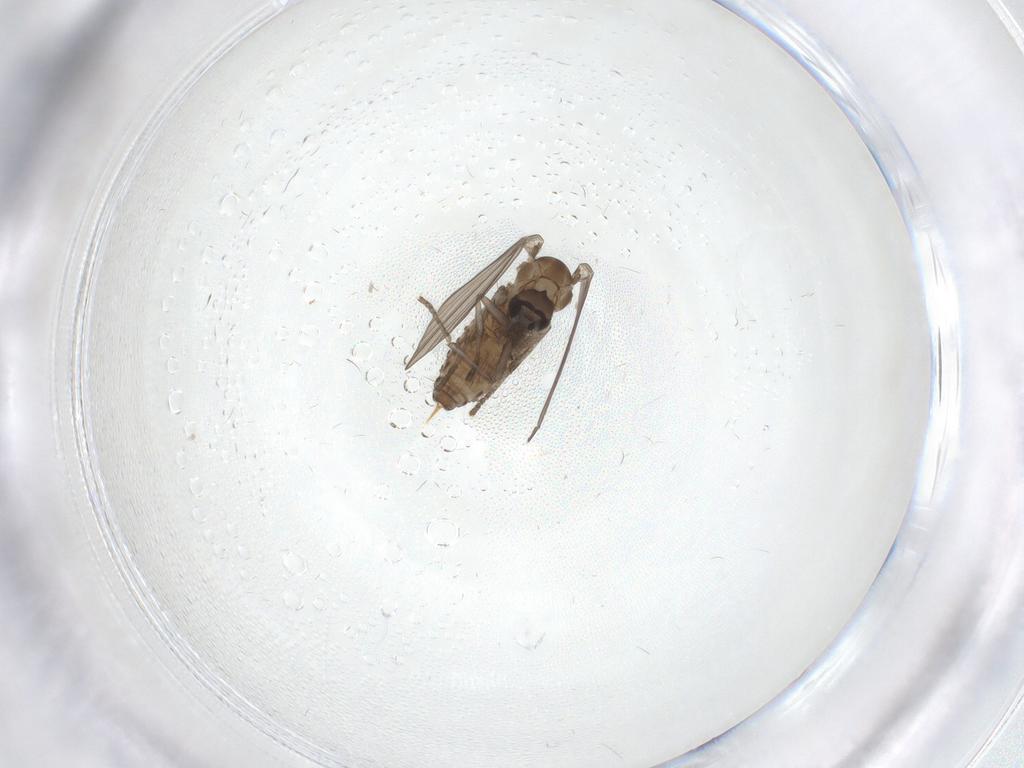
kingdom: Animalia
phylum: Arthropoda
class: Insecta
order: Diptera
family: Psychodidae
